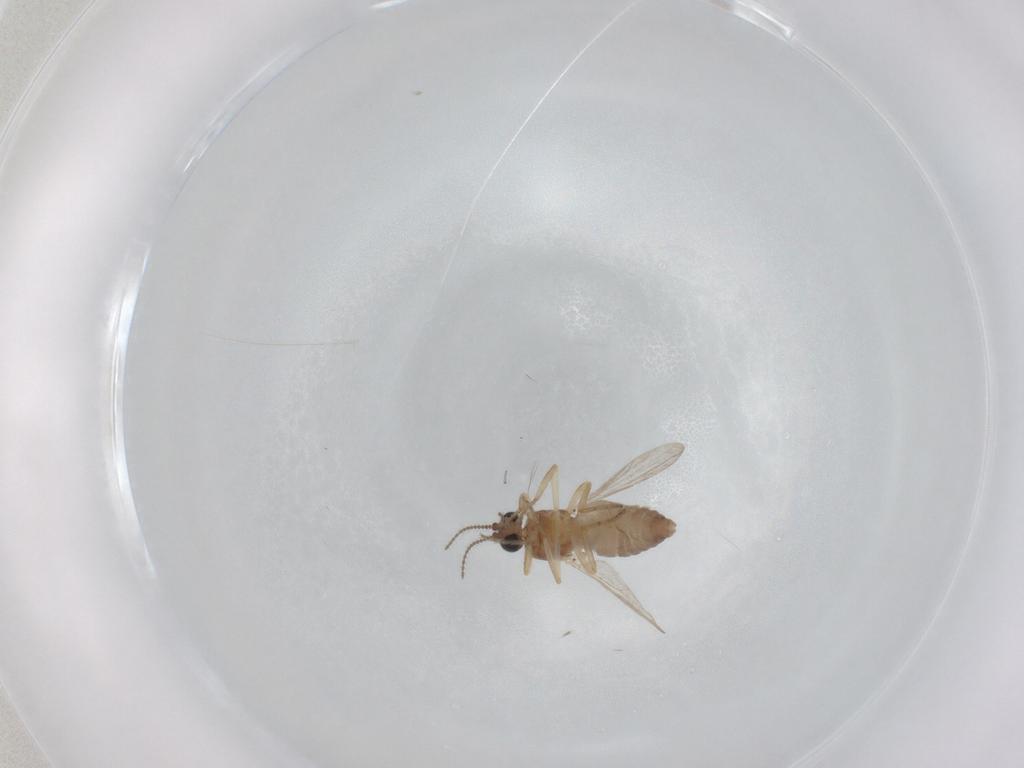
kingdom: Animalia
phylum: Arthropoda
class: Insecta
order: Diptera
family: Ceratopogonidae
